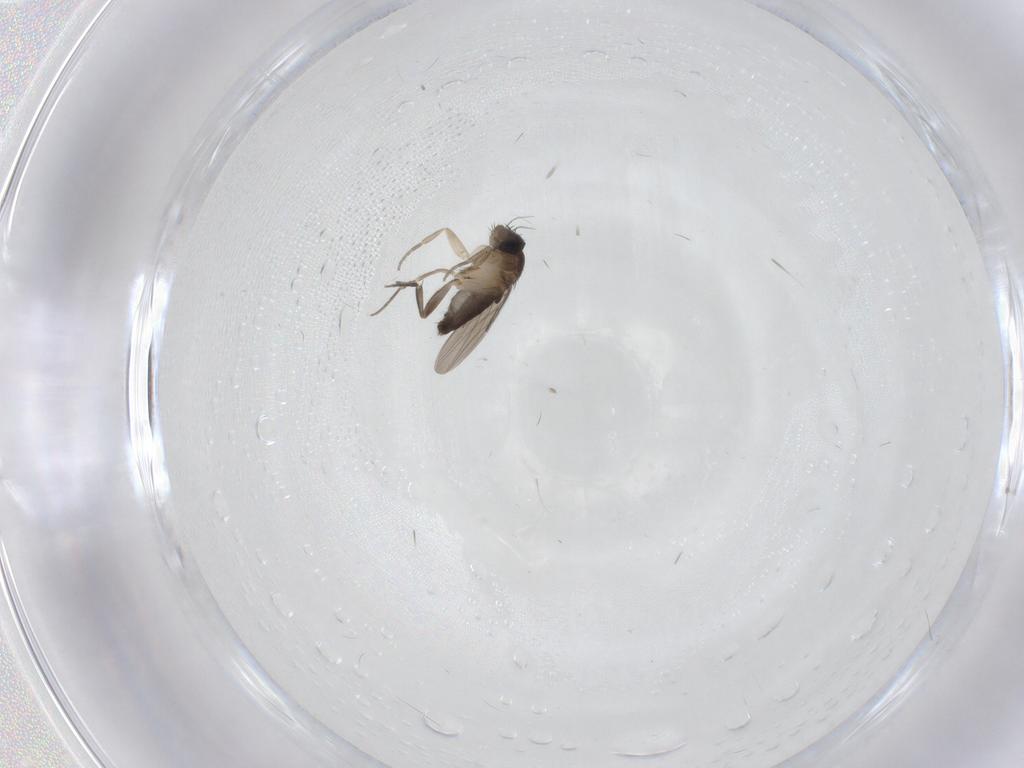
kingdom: Animalia
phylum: Arthropoda
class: Insecta
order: Diptera
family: Phoridae
